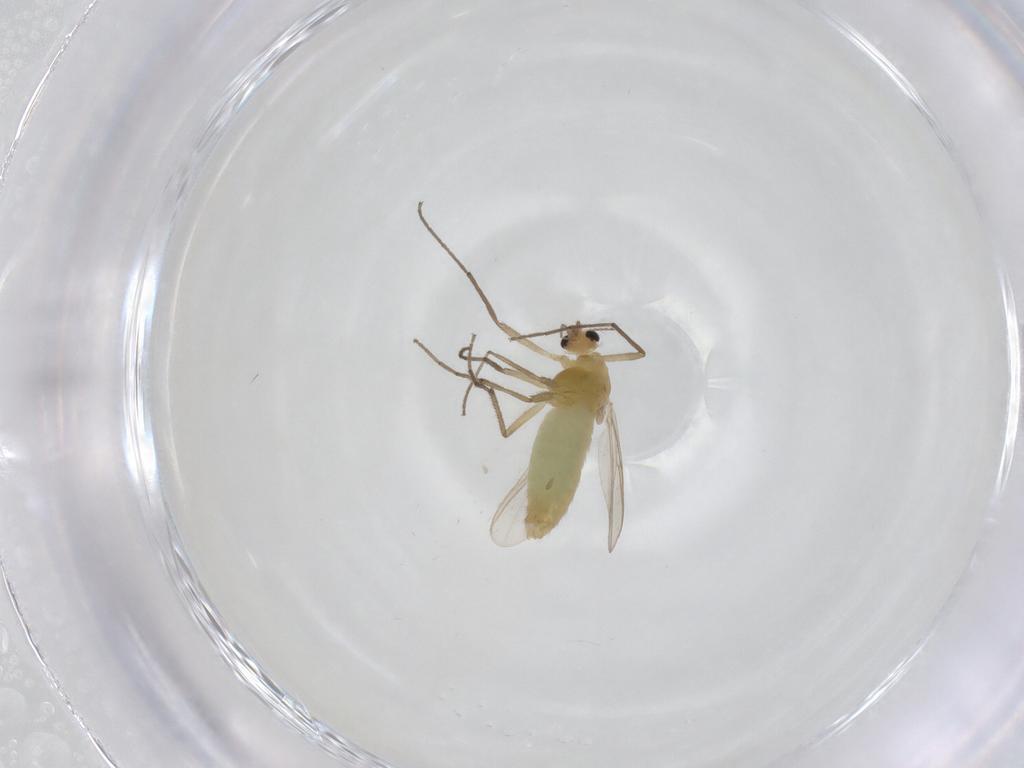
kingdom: Animalia
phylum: Arthropoda
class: Insecta
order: Diptera
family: Chironomidae
